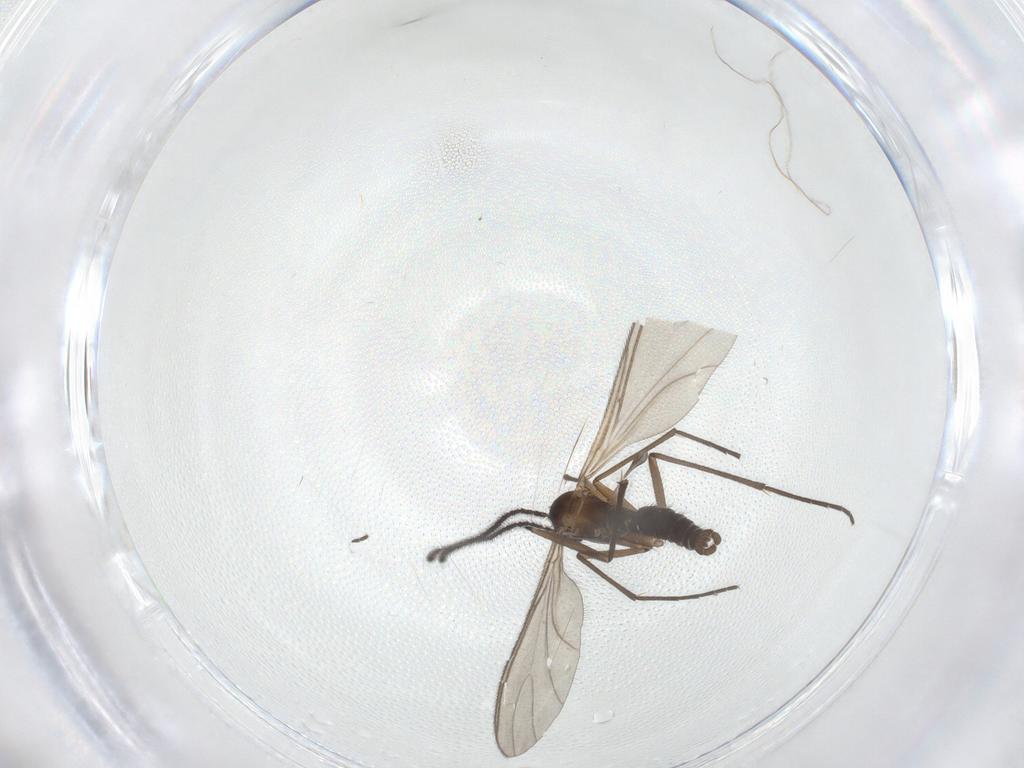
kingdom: Animalia
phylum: Arthropoda
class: Insecta
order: Diptera
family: Sciaridae
